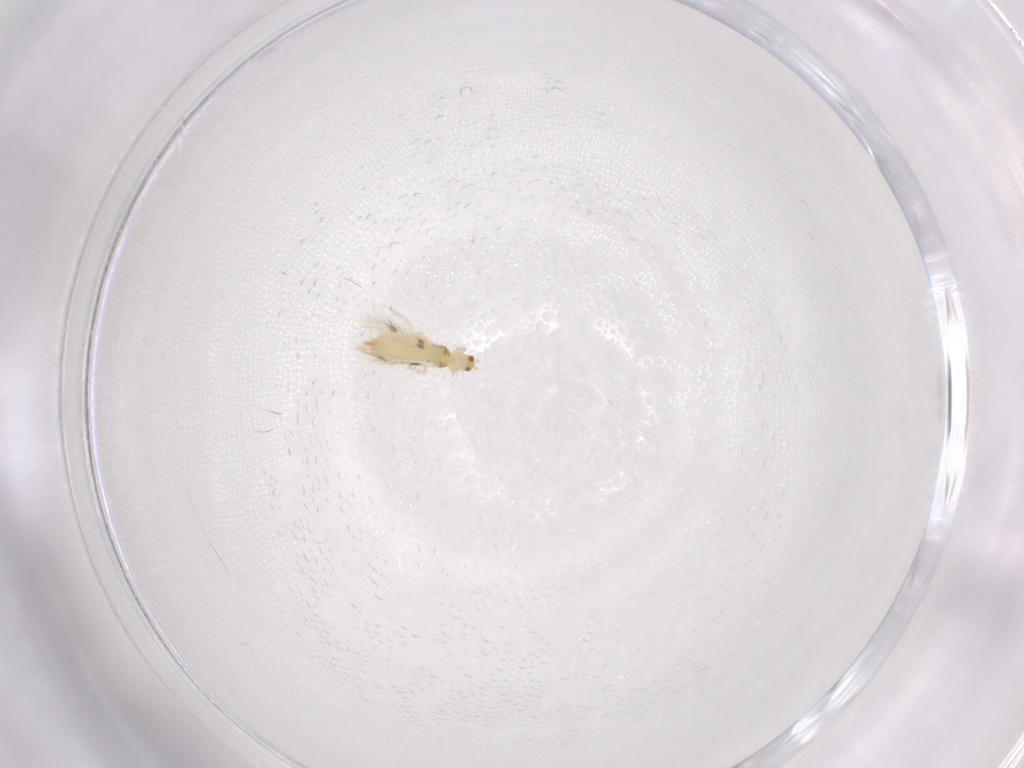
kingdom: Animalia
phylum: Arthropoda
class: Insecta
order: Thysanoptera
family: Thripidae
